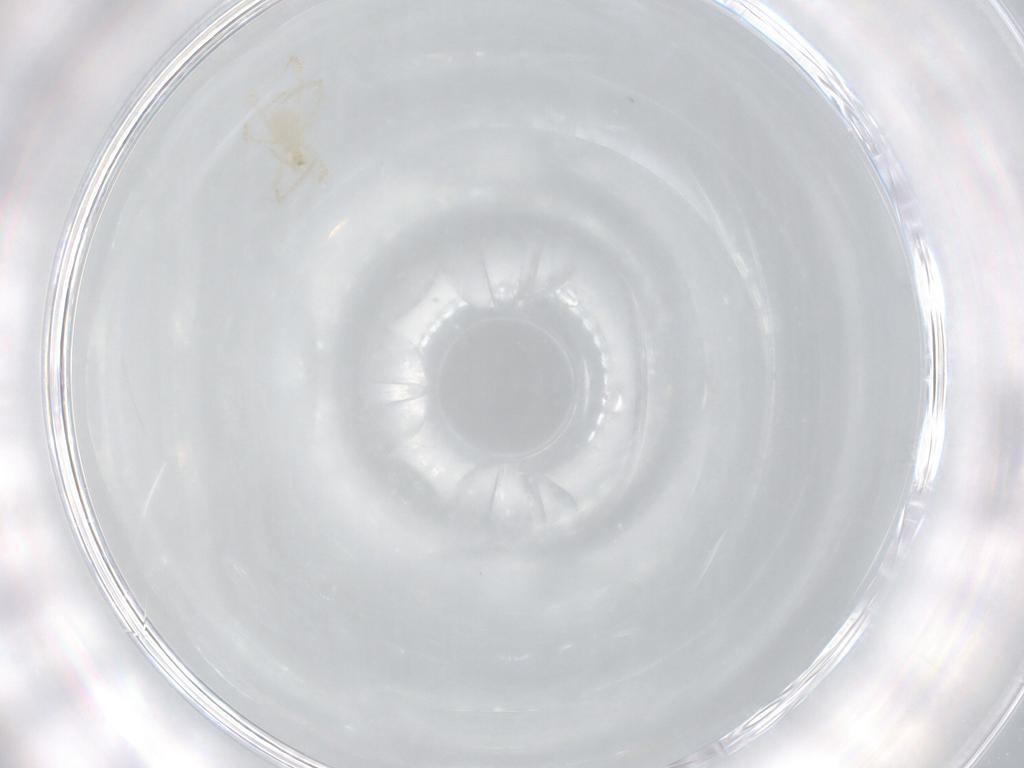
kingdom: Animalia
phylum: Arthropoda
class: Arachnida
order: Trombidiformes
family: Erythraeidae
